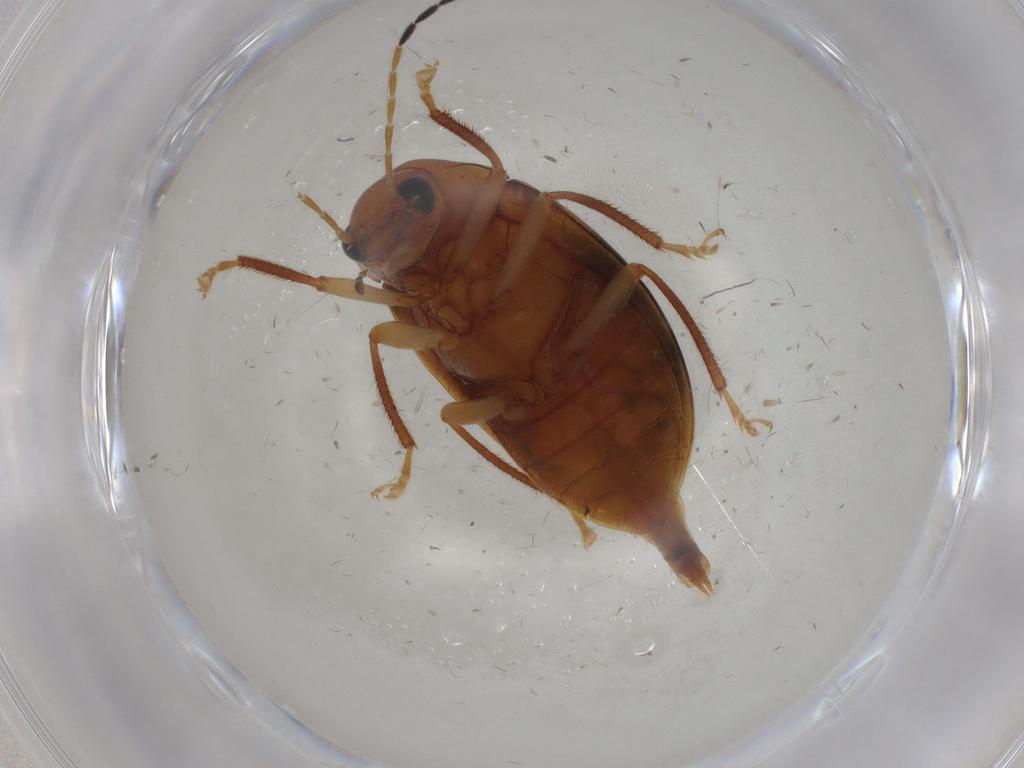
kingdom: Animalia
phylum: Arthropoda
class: Insecta
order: Coleoptera
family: Ptilodactylidae
